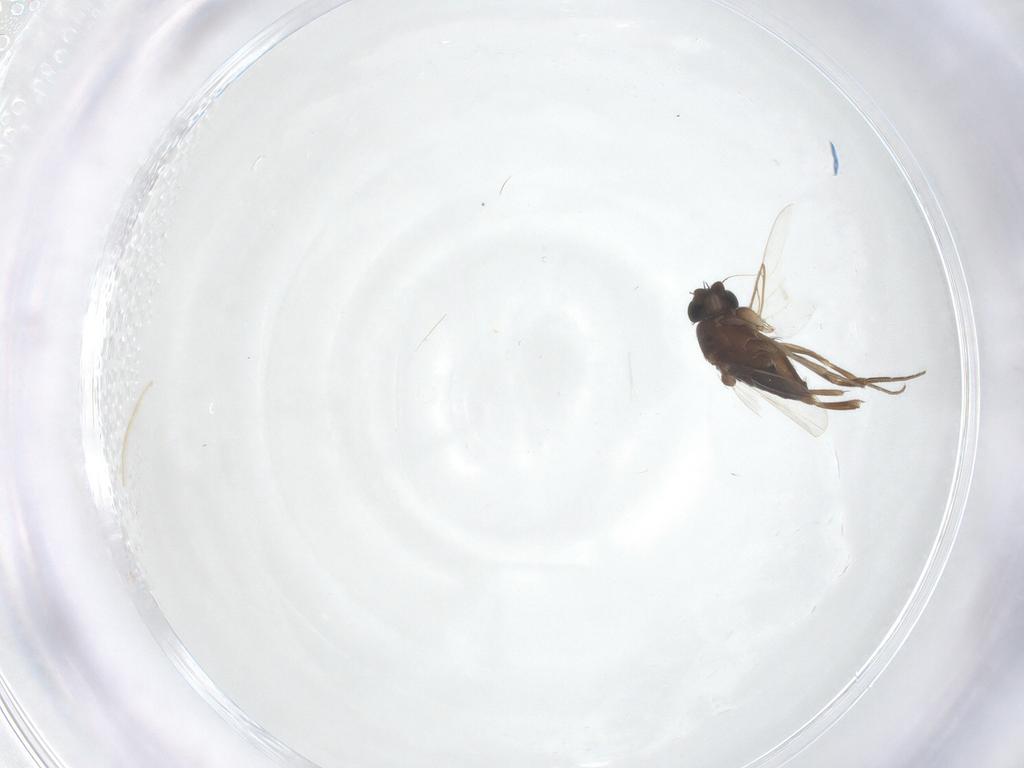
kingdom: Animalia
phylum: Arthropoda
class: Insecta
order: Diptera
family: Phoridae
